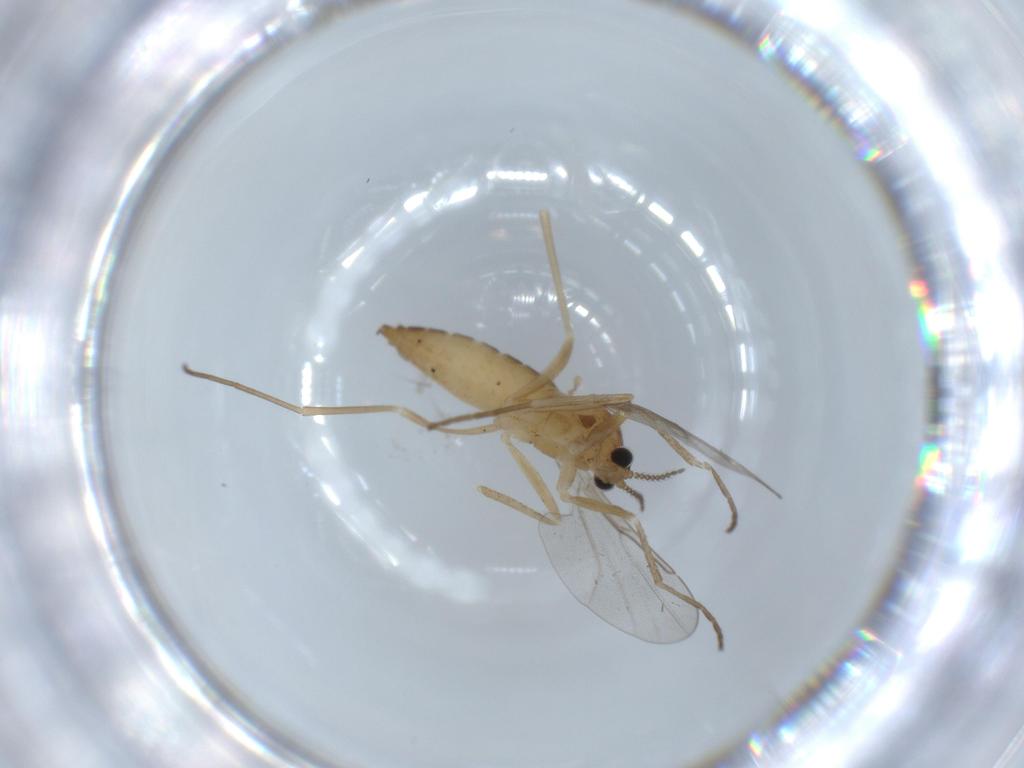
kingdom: Animalia
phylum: Arthropoda
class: Insecta
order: Diptera
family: Cecidomyiidae
